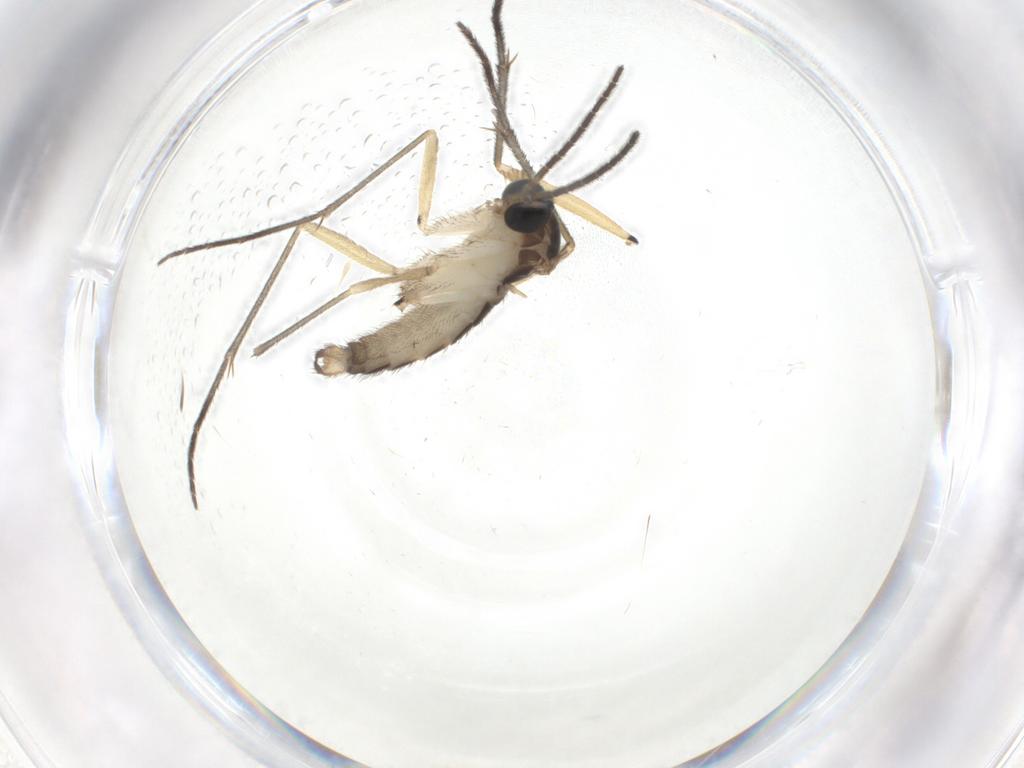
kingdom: Animalia
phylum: Arthropoda
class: Insecta
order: Diptera
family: Sciaridae
